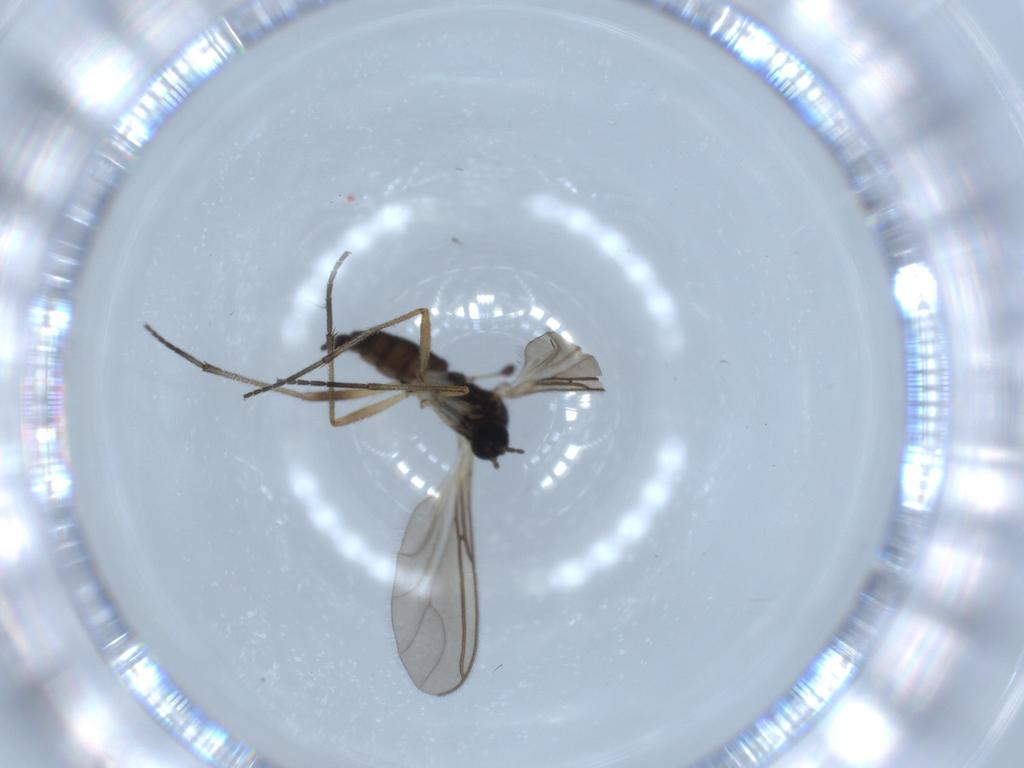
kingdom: Animalia
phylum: Arthropoda
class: Insecta
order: Diptera
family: Sciaridae
